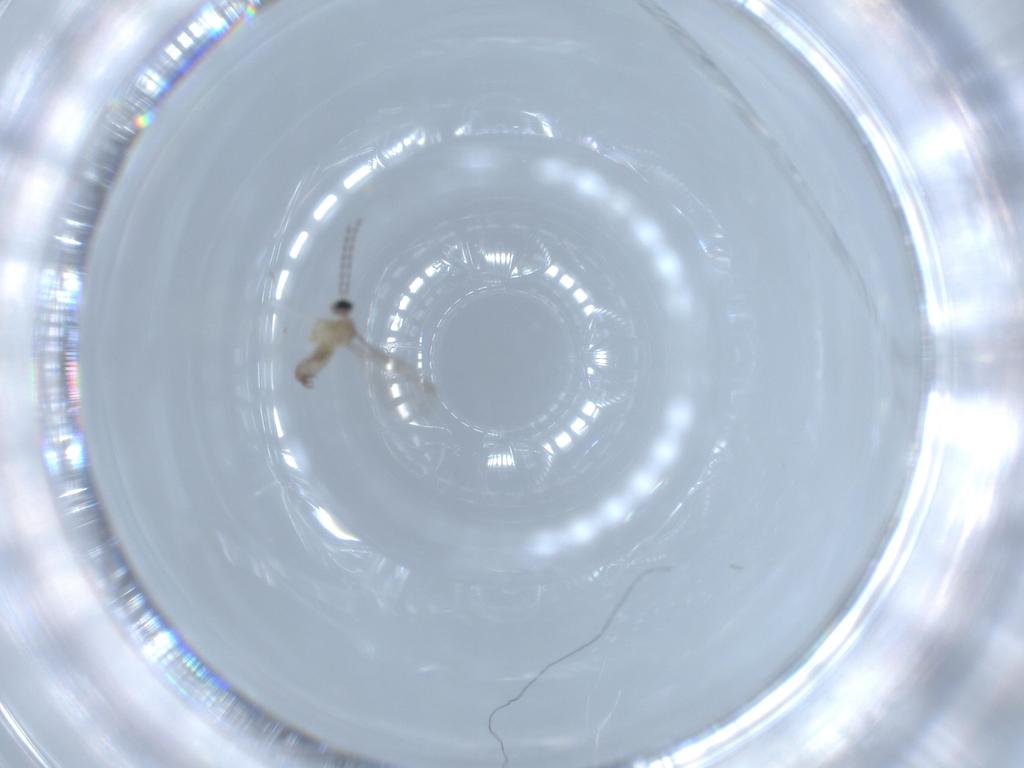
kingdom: Animalia
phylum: Arthropoda
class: Insecta
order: Diptera
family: Cecidomyiidae
